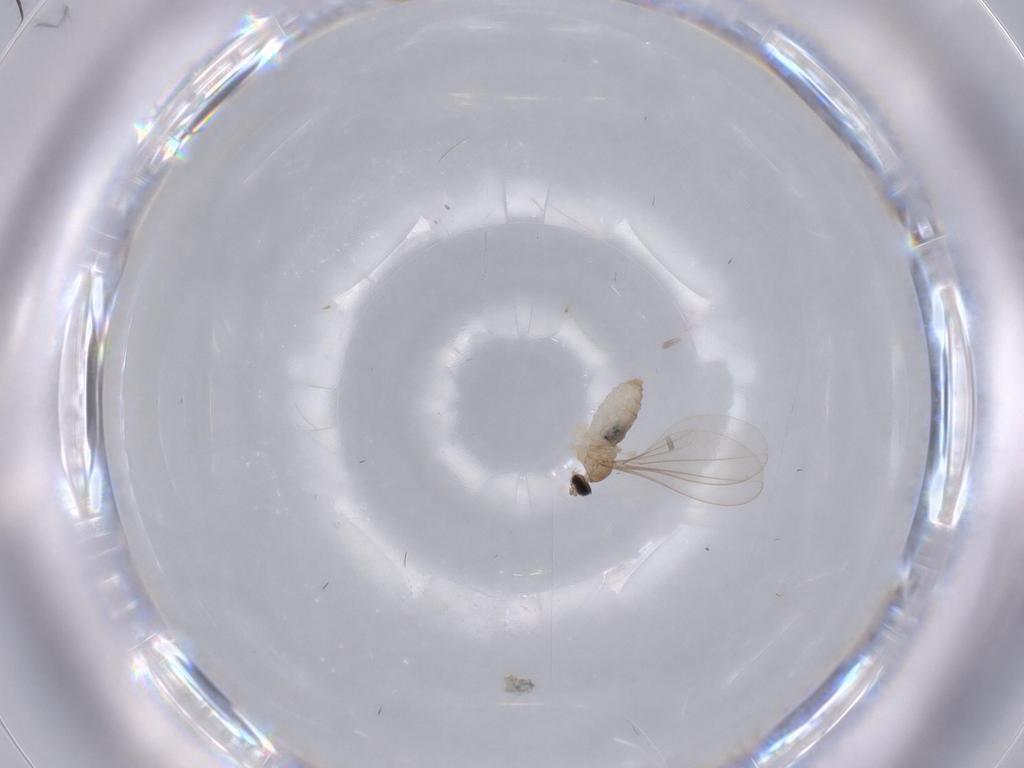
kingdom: Animalia
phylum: Arthropoda
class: Insecta
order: Diptera
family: Cecidomyiidae
